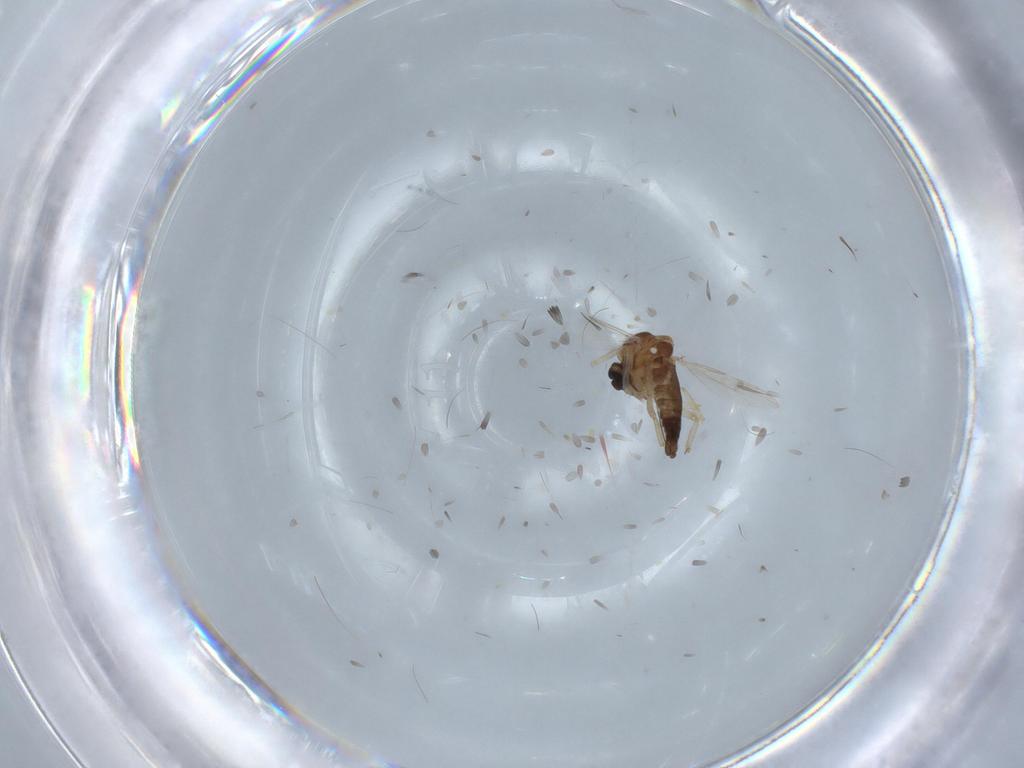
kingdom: Animalia
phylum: Arthropoda
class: Insecta
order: Diptera
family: Ceratopogonidae
